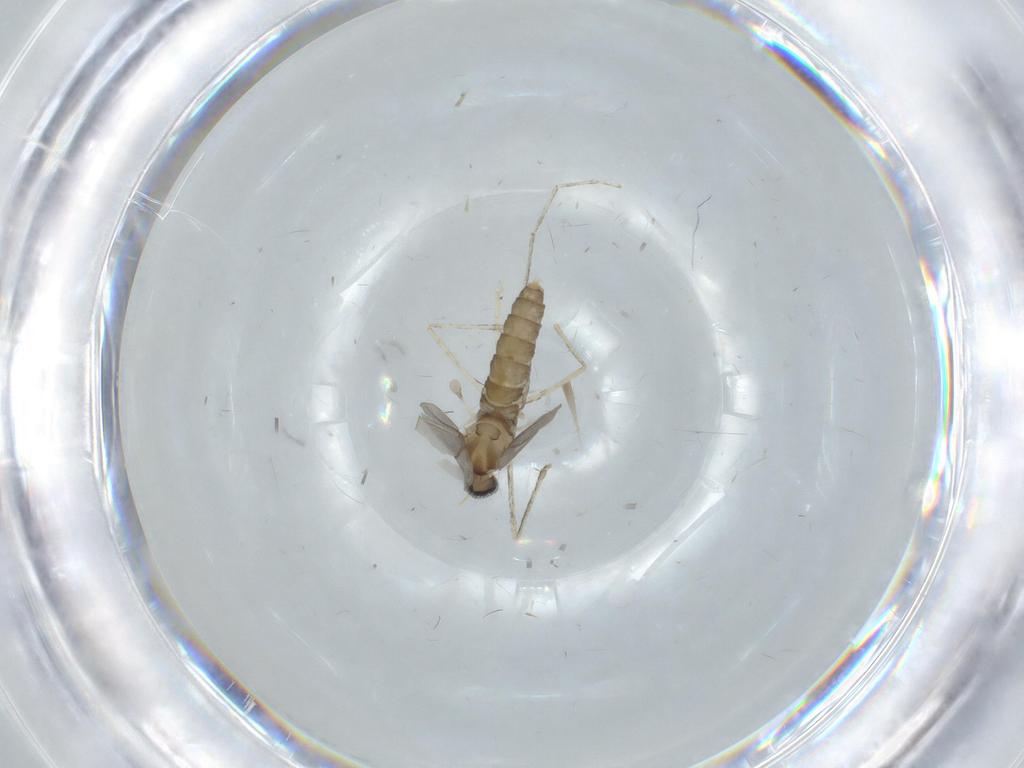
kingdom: Animalia
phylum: Arthropoda
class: Insecta
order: Diptera
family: Cecidomyiidae
